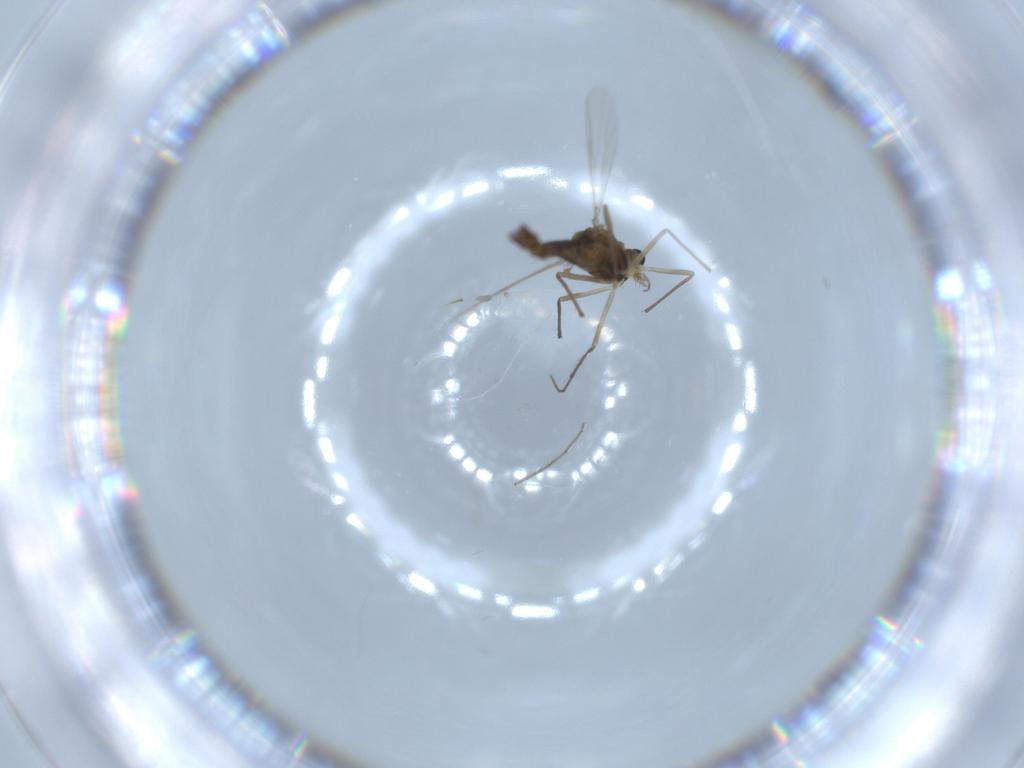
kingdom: Animalia
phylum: Arthropoda
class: Insecta
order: Diptera
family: Chironomidae
